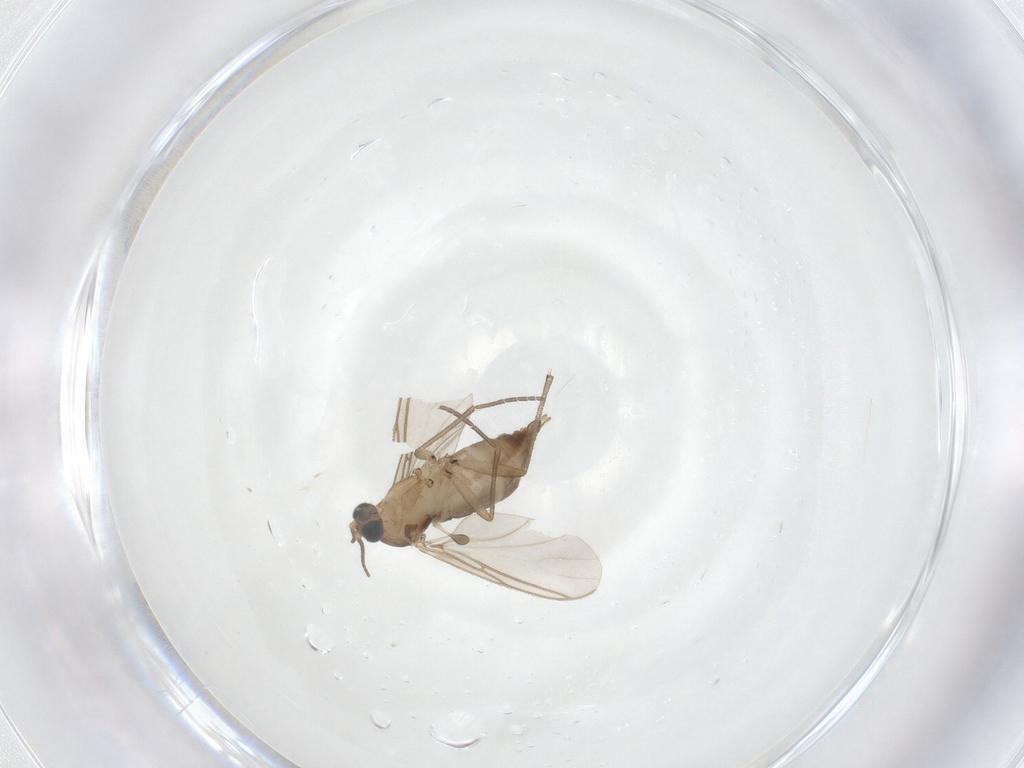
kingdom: Animalia
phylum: Arthropoda
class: Insecta
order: Diptera
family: Sciaridae
